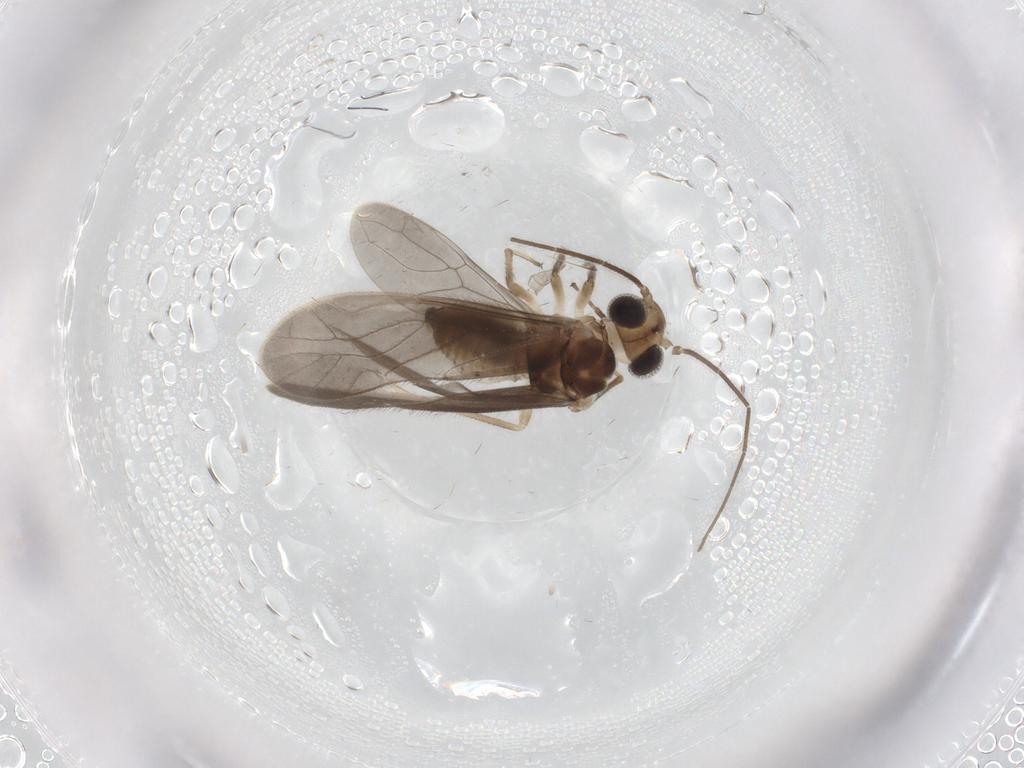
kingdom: Animalia
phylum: Arthropoda
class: Insecta
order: Psocodea
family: Caeciliusidae
